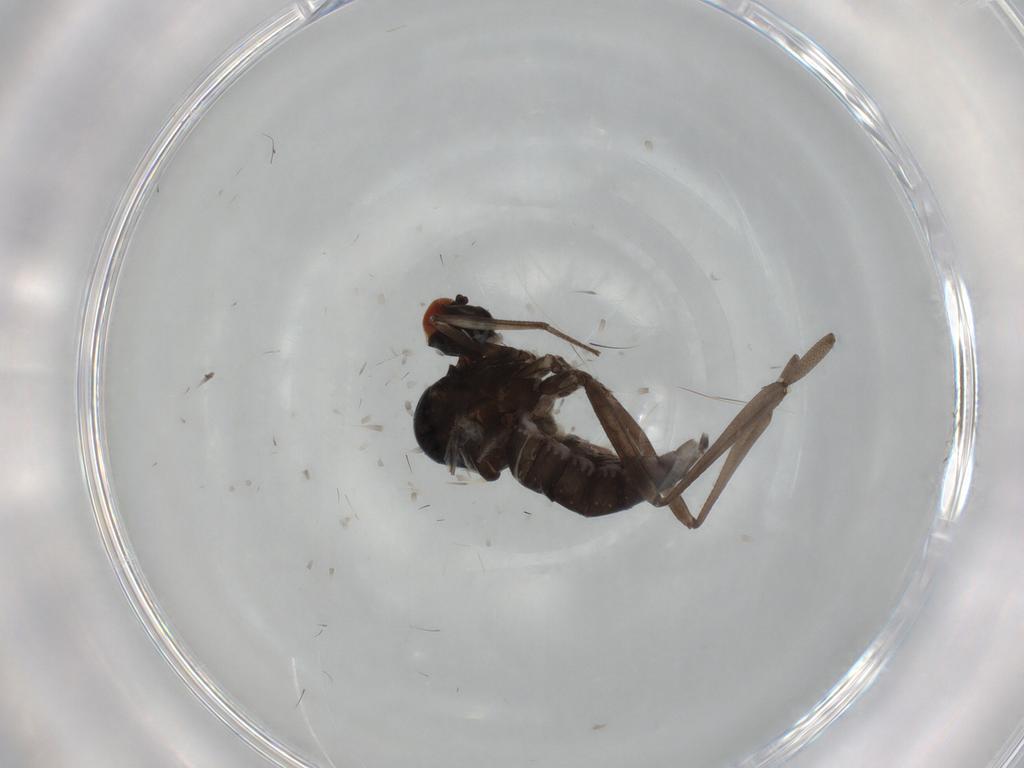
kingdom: Animalia
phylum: Arthropoda
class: Insecta
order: Diptera
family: Hybotidae
